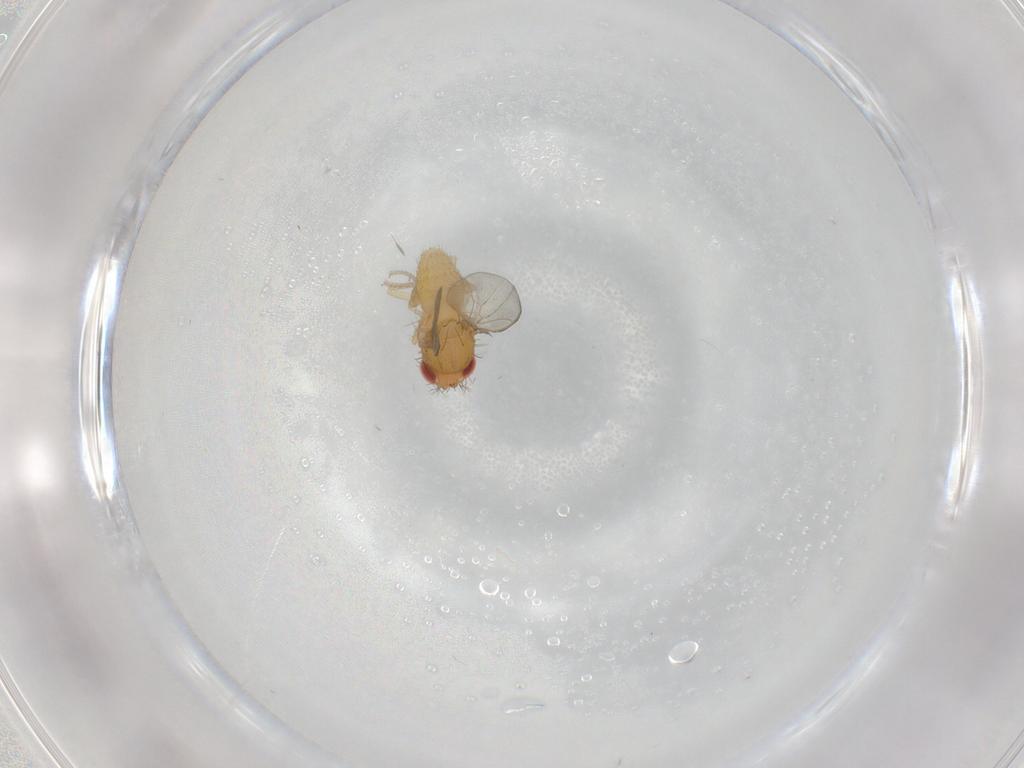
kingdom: Animalia
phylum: Arthropoda
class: Insecta
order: Diptera
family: Drosophilidae
